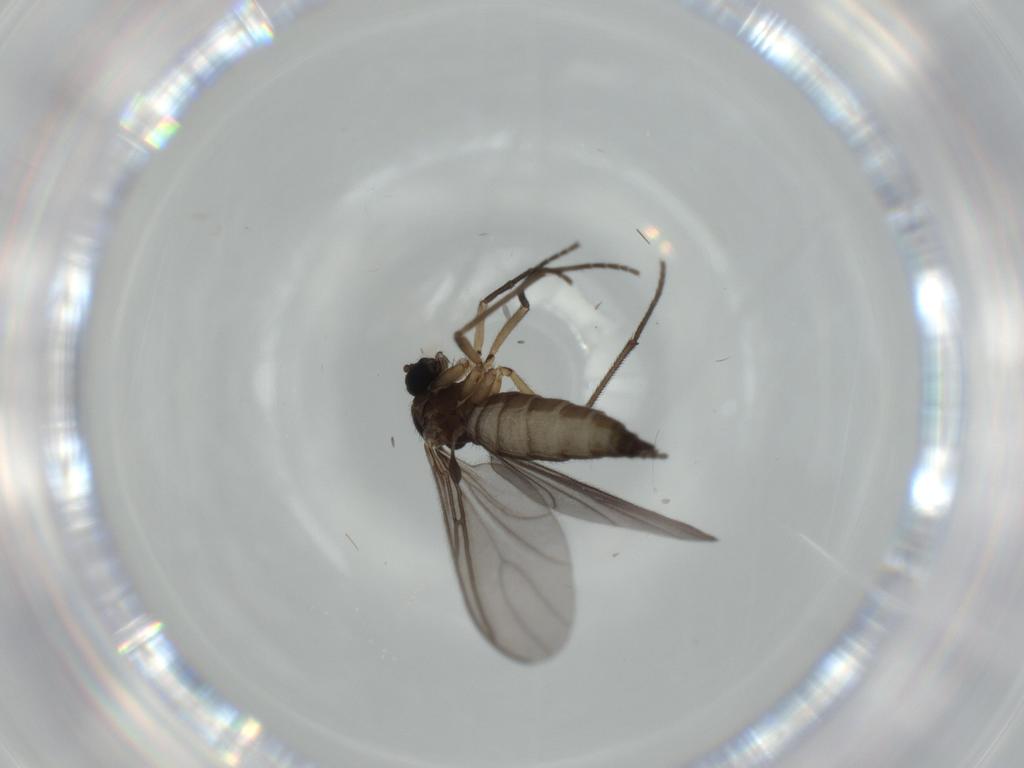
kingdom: Animalia
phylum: Arthropoda
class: Insecta
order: Diptera
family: Sciaridae
